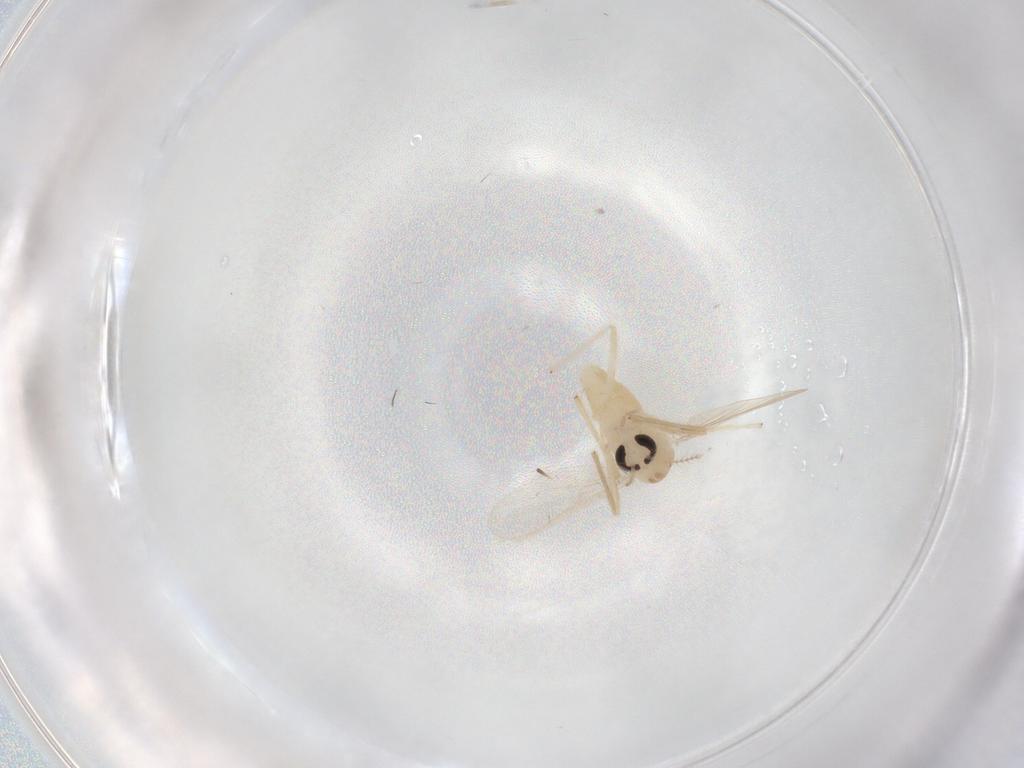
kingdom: Animalia
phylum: Arthropoda
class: Insecta
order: Diptera
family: Chironomidae
